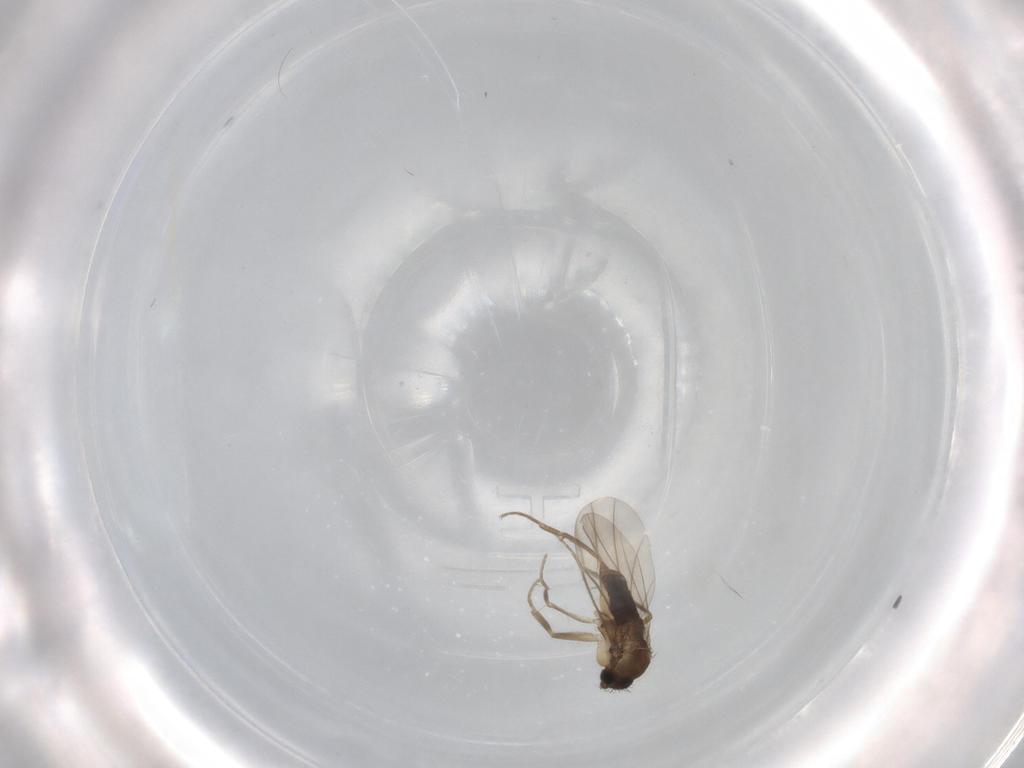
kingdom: Animalia
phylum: Arthropoda
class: Insecta
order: Diptera
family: Phoridae
